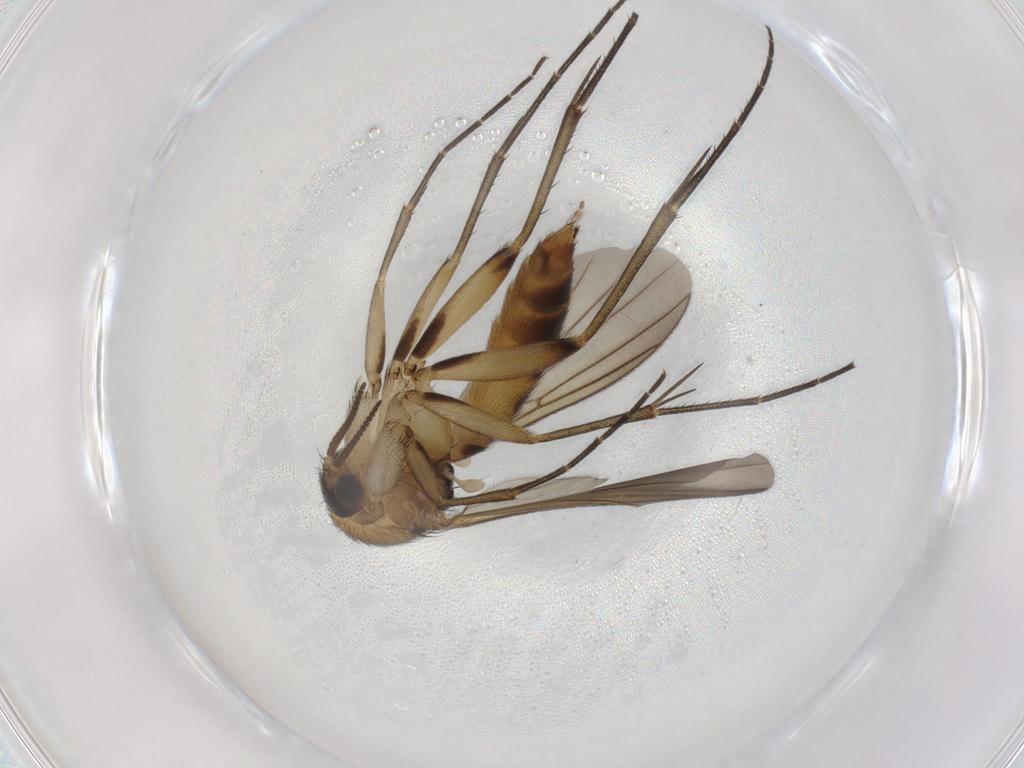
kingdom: Animalia
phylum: Arthropoda
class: Insecta
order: Diptera
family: Mycetophilidae
